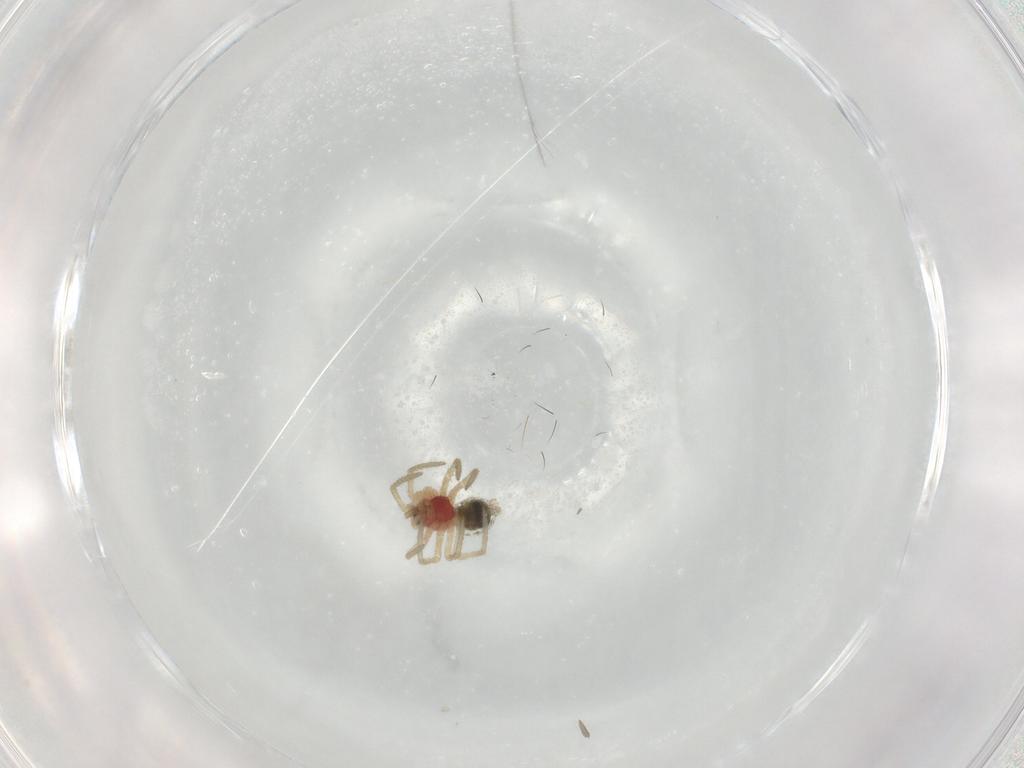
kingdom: Animalia
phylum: Arthropoda
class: Arachnida
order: Araneae
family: Linyphiidae
